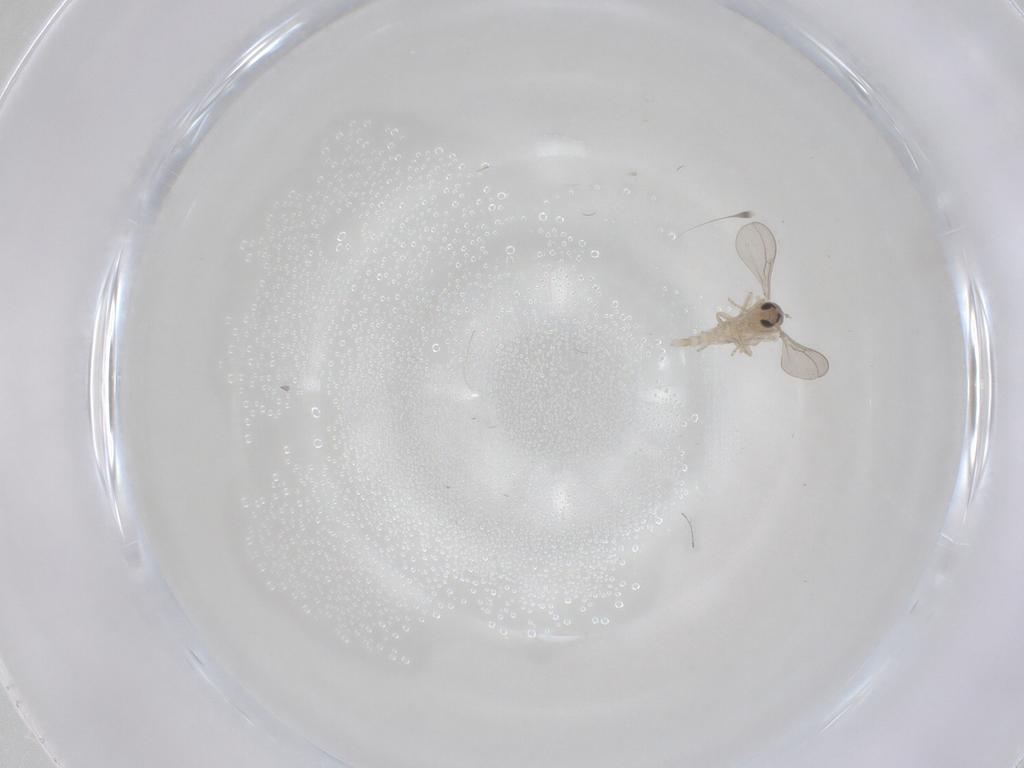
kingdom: Animalia
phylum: Arthropoda
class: Insecta
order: Diptera
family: Cecidomyiidae
